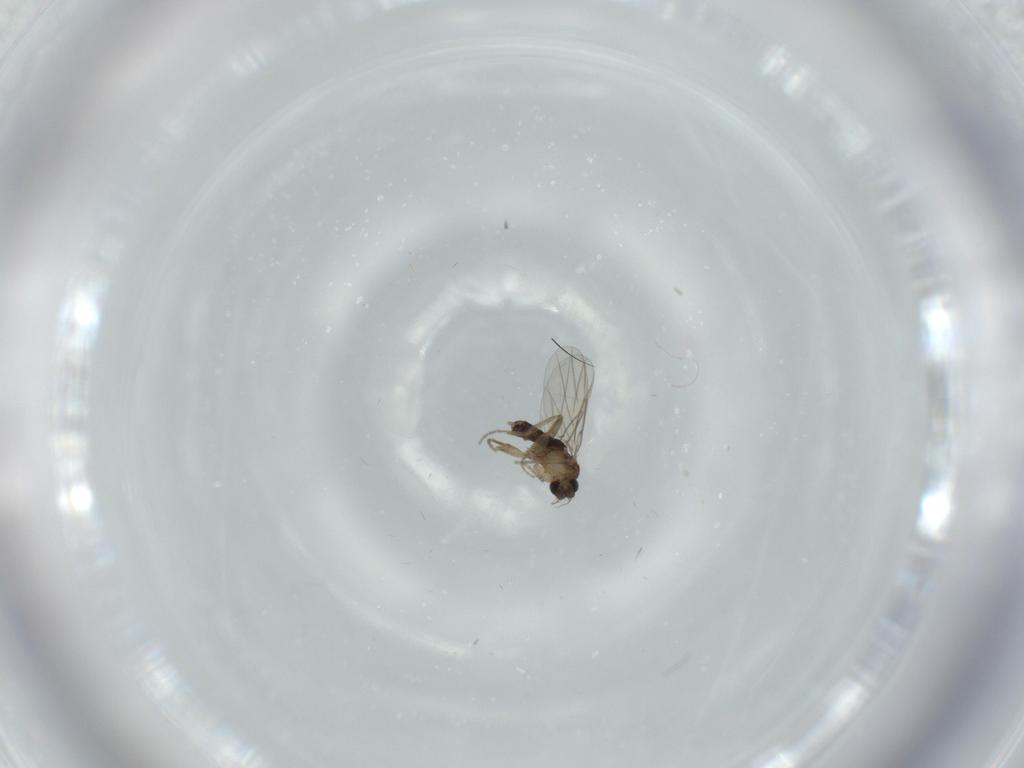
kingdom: Animalia
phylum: Arthropoda
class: Insecta
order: Diptera
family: Phoridae
